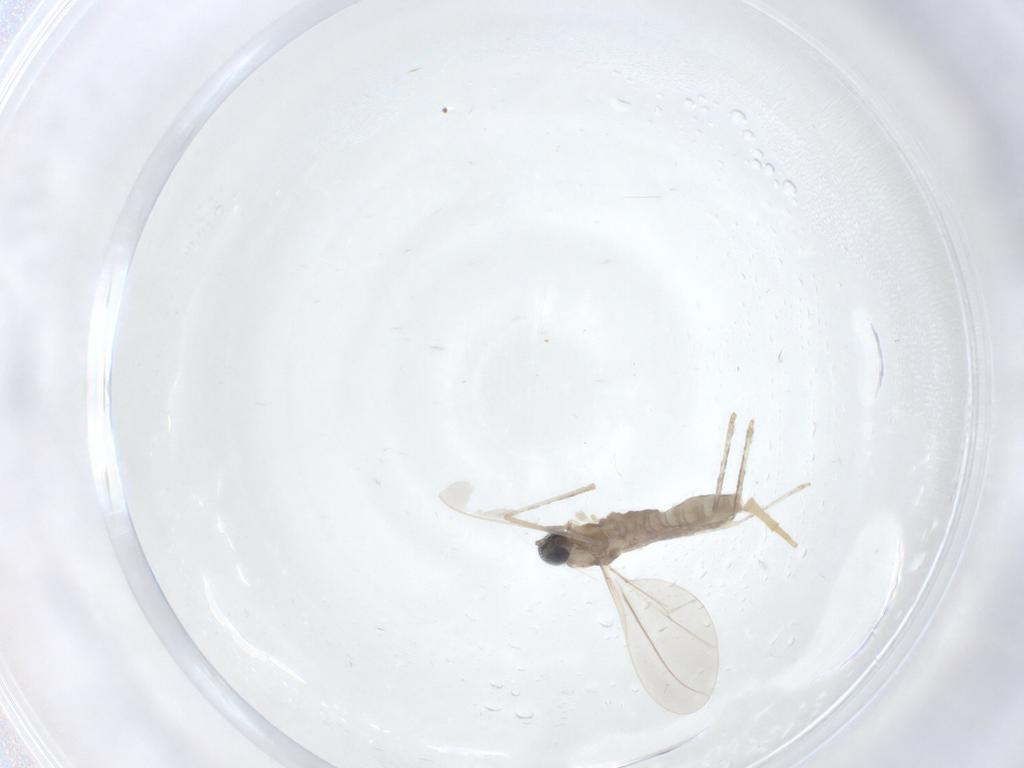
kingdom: Animalia
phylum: Arthropoda
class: Insecta
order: Diptera
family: Cecidomyiidae
